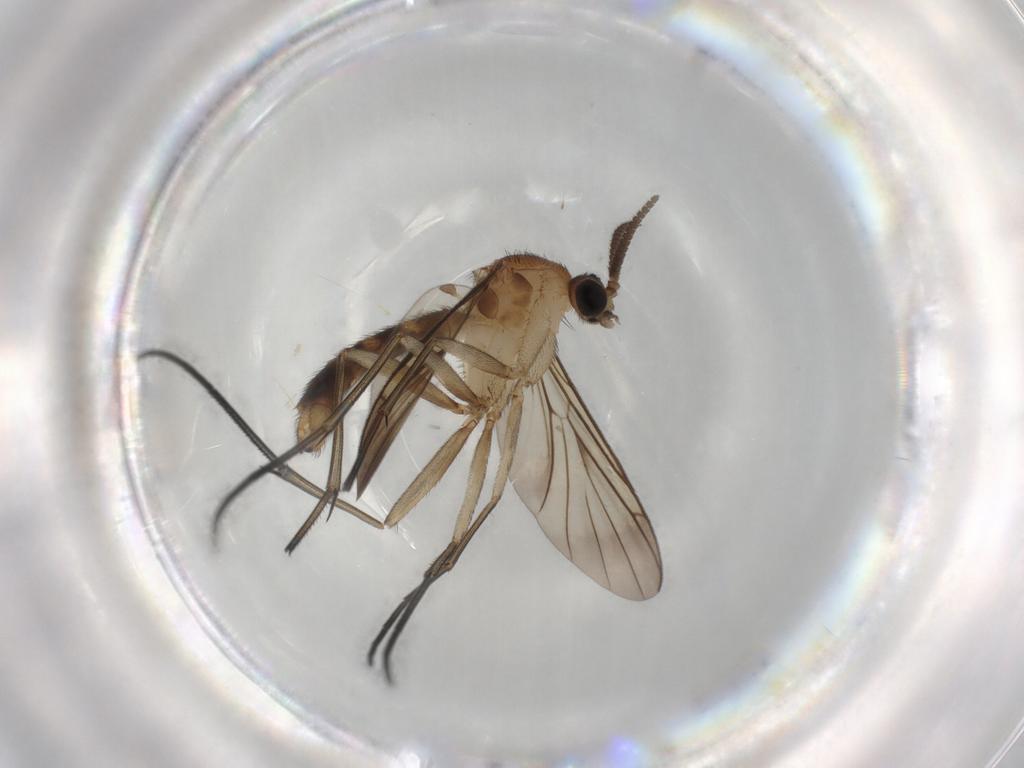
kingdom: Animalia
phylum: Arthropoda
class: Insecta
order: Diptera
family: Cecidomyiidae
